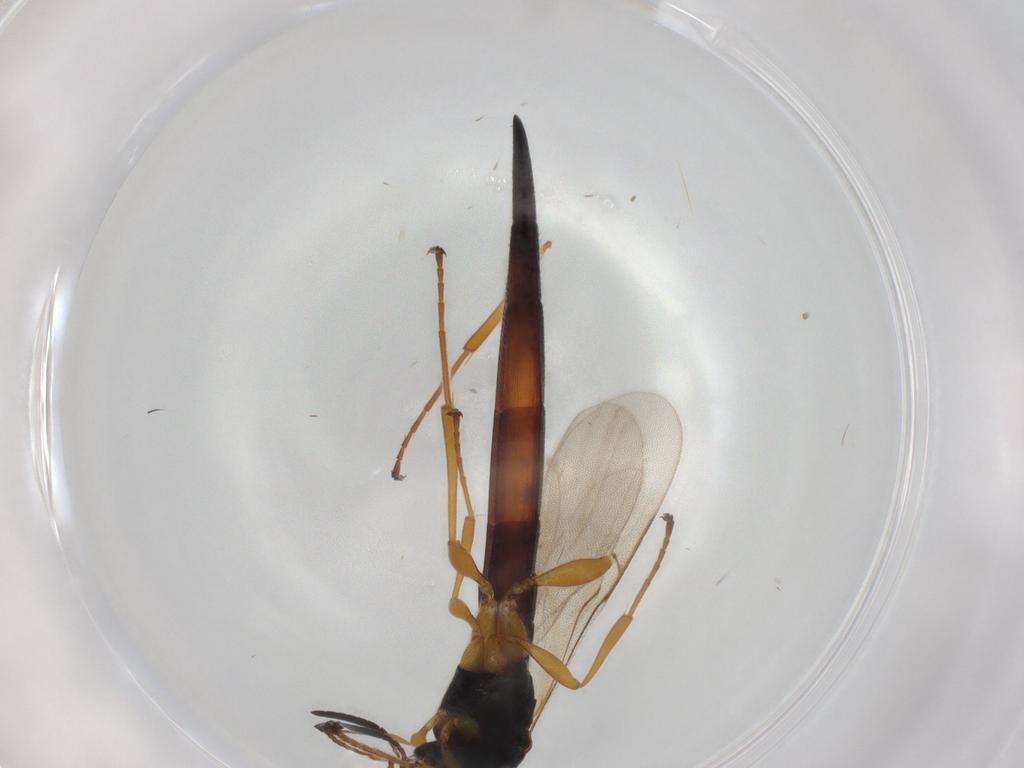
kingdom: Animalia
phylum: Arthropoda
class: Insecta
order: Hymenoptera
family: Scelionidae
